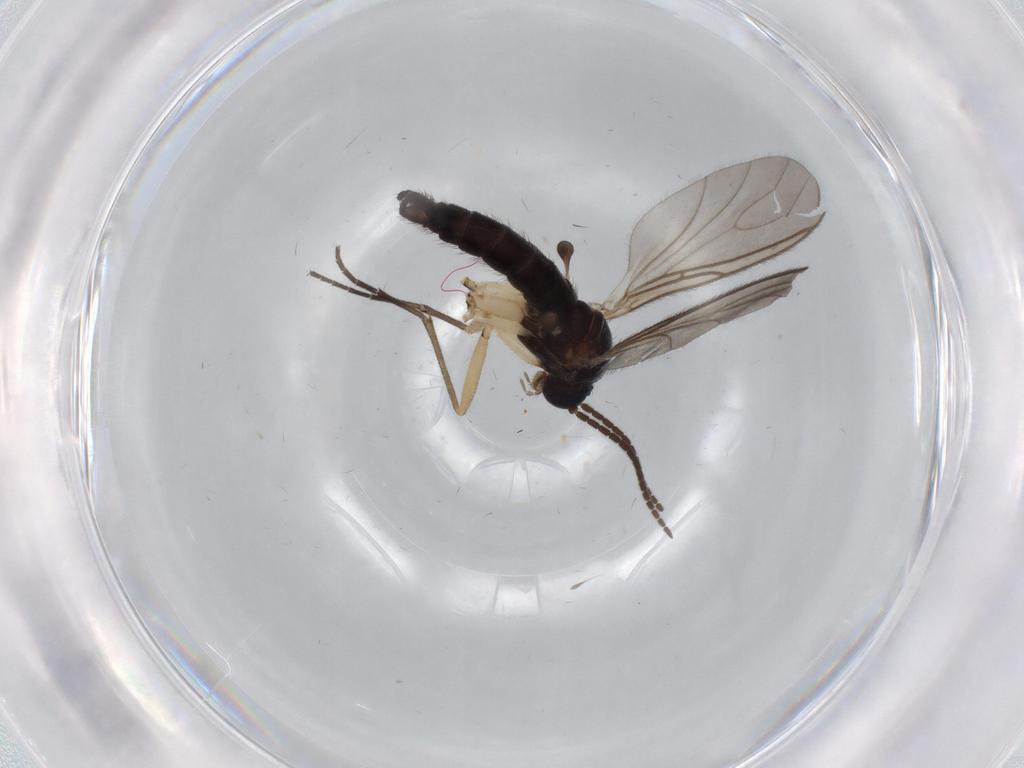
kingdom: Animalia
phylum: Arthropoda
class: Insecta
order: Diptera
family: Sciaridae
